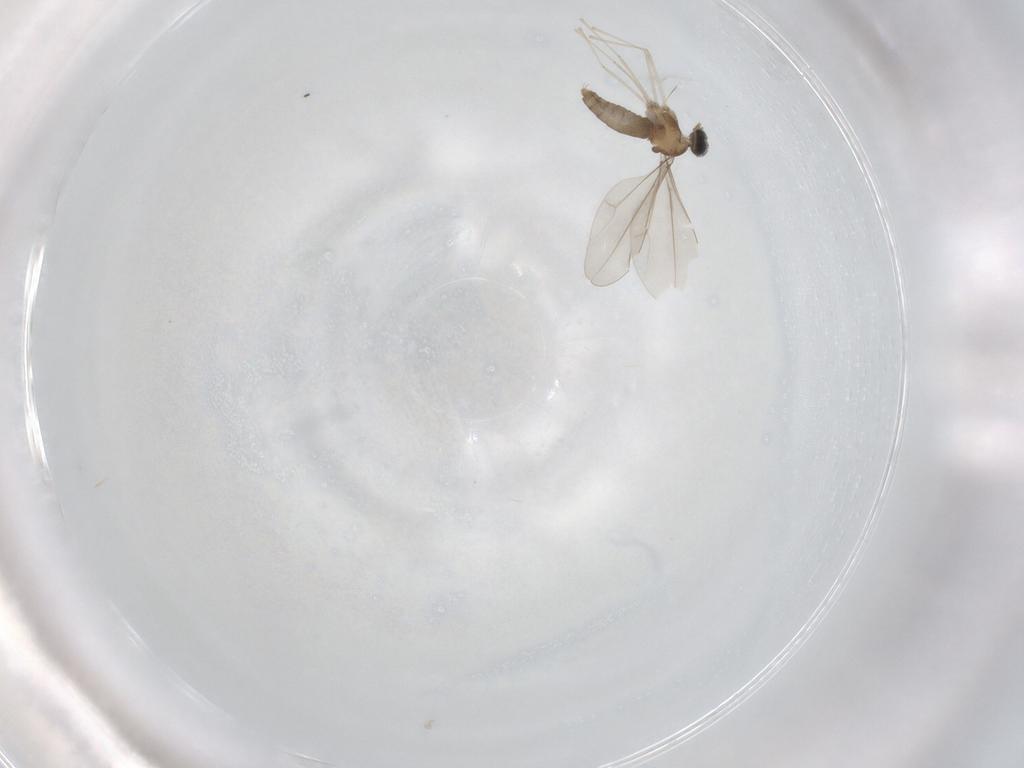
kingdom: Animalia
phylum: Arthropoda
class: Insecta
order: Diptera
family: Cecidomyiidae
